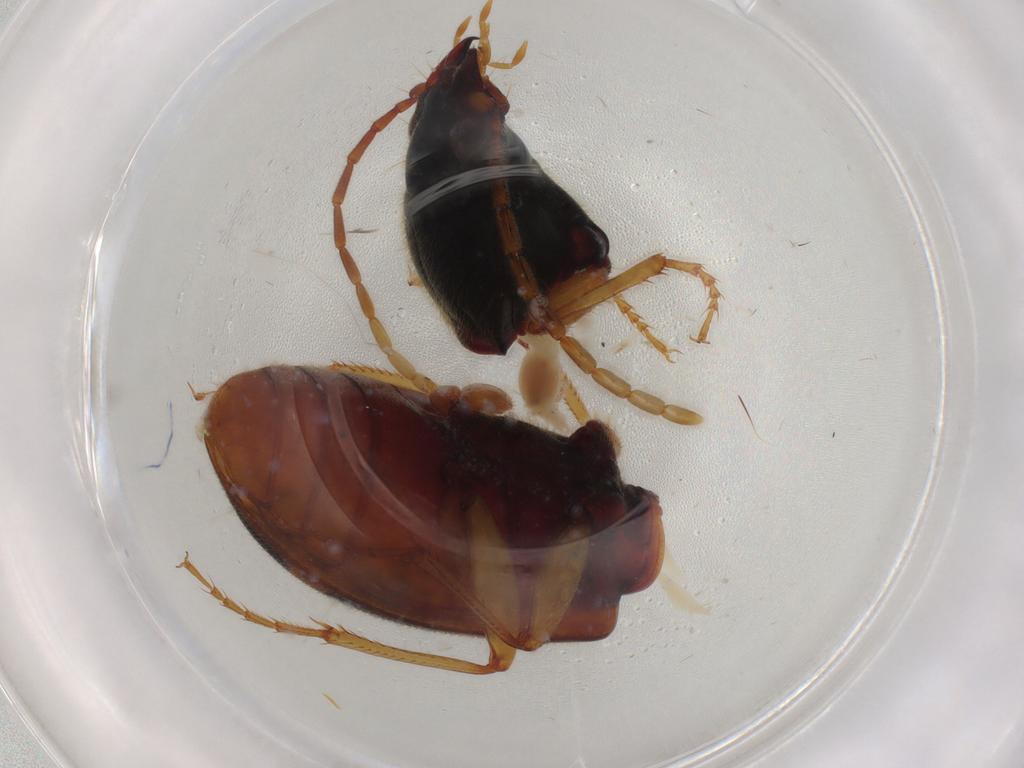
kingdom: Animalia
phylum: Arthropoda
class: Insecta
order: Coleoptera
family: Carabidae
